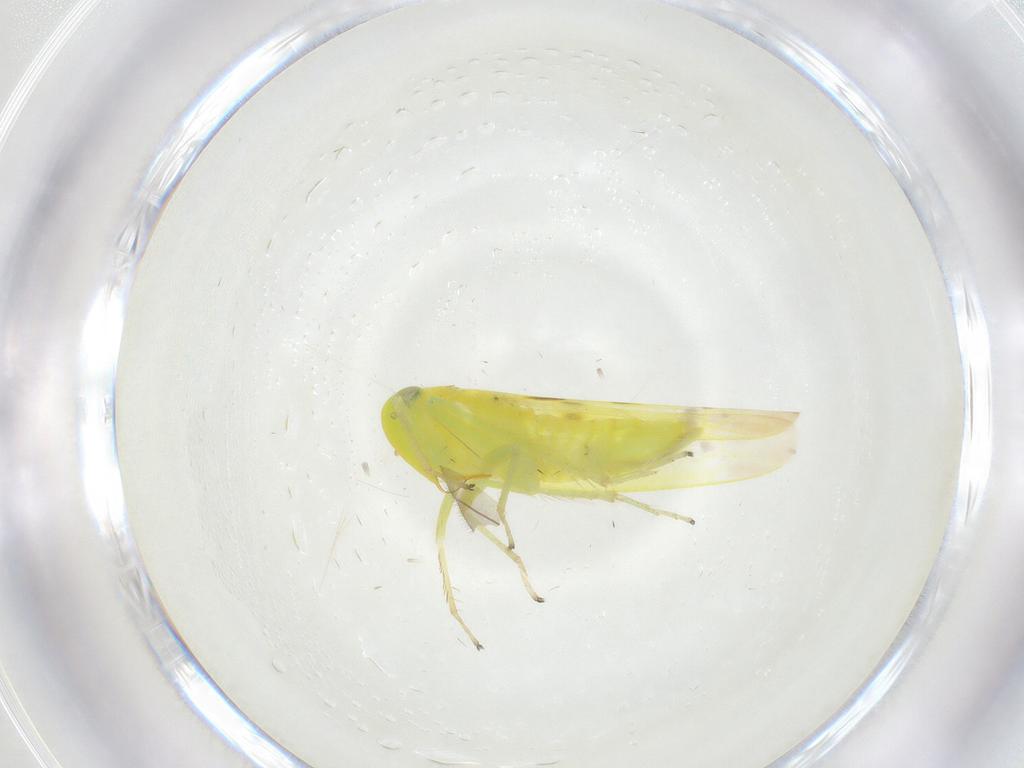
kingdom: Animalia
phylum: Arthropoda
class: Insecta
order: Hemiptera
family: Cicadellidae
